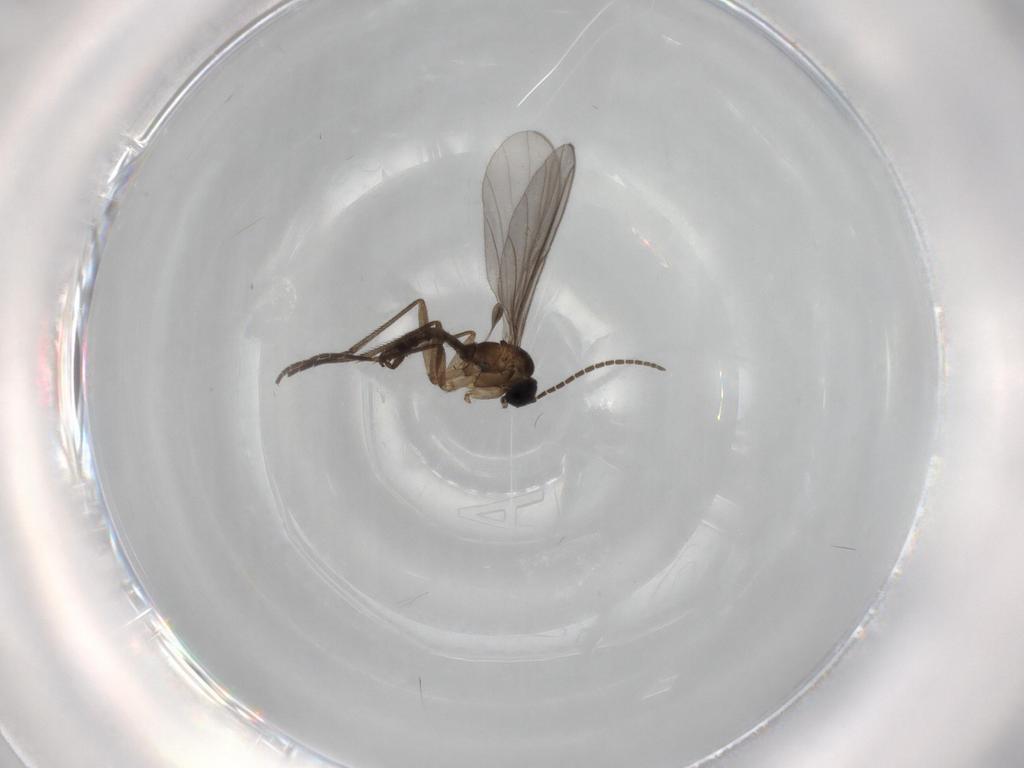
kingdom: Animalia
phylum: Arthropoda
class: Insecta
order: Diptera
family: Sciaridae
